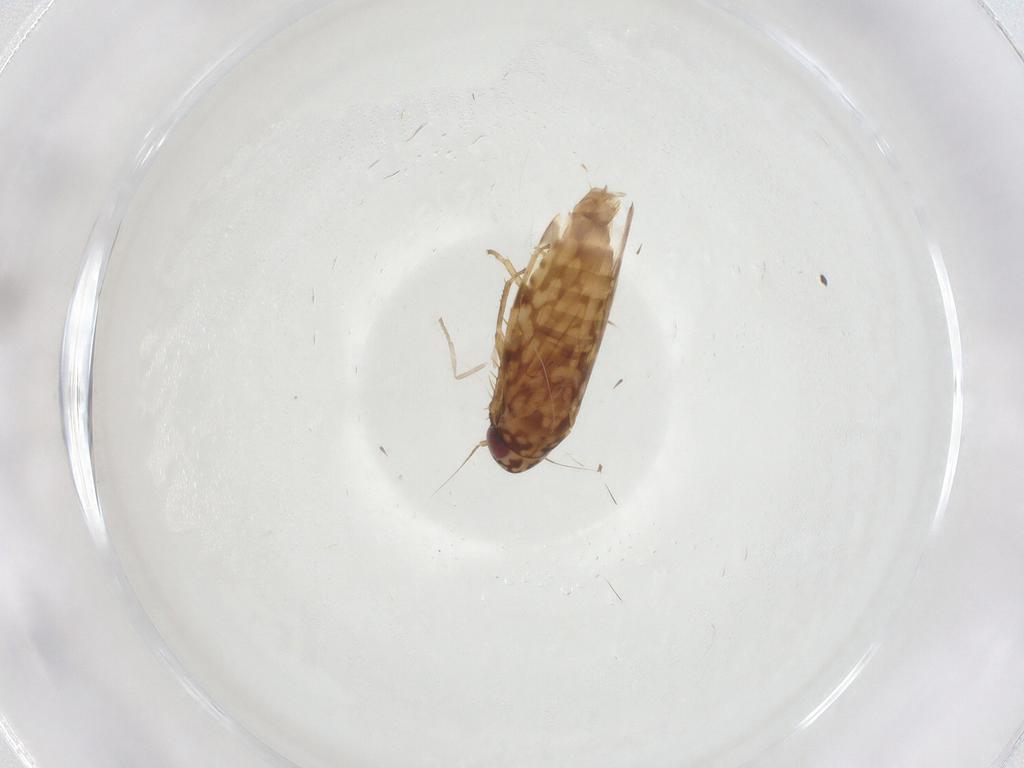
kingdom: Animalia
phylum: Arthropoda
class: Insecta
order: Hemiptera
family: Cicadellidae
